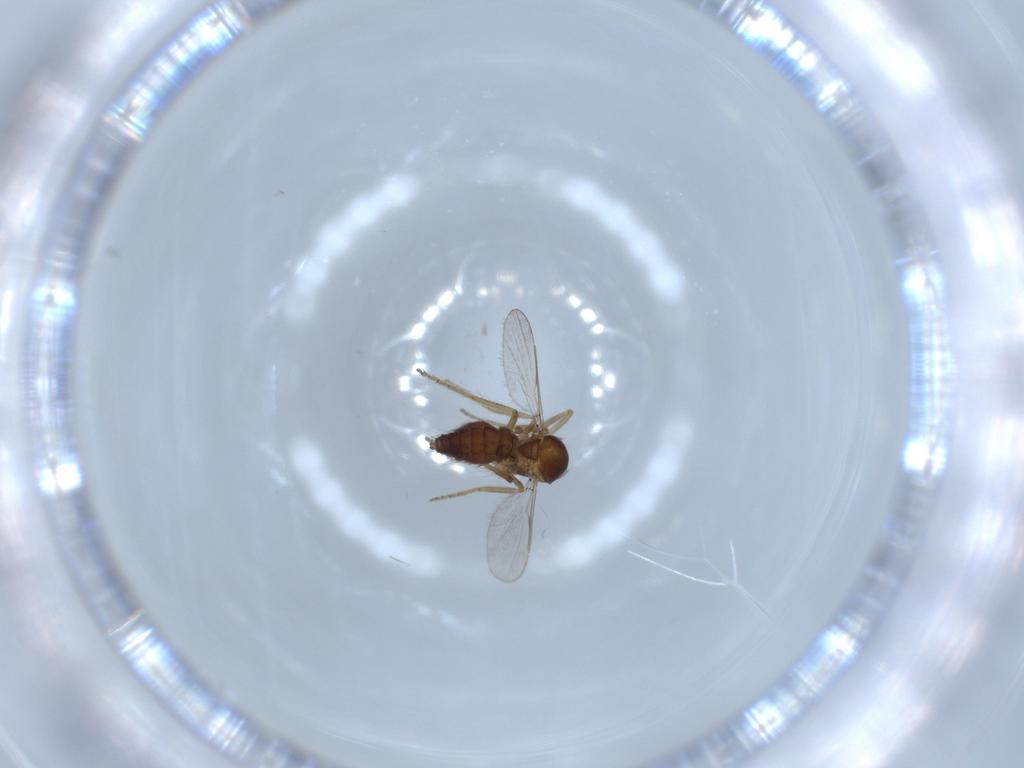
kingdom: Animalia
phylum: Arthropoda
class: Insecta
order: Diptera
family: Ceratopogonidae
